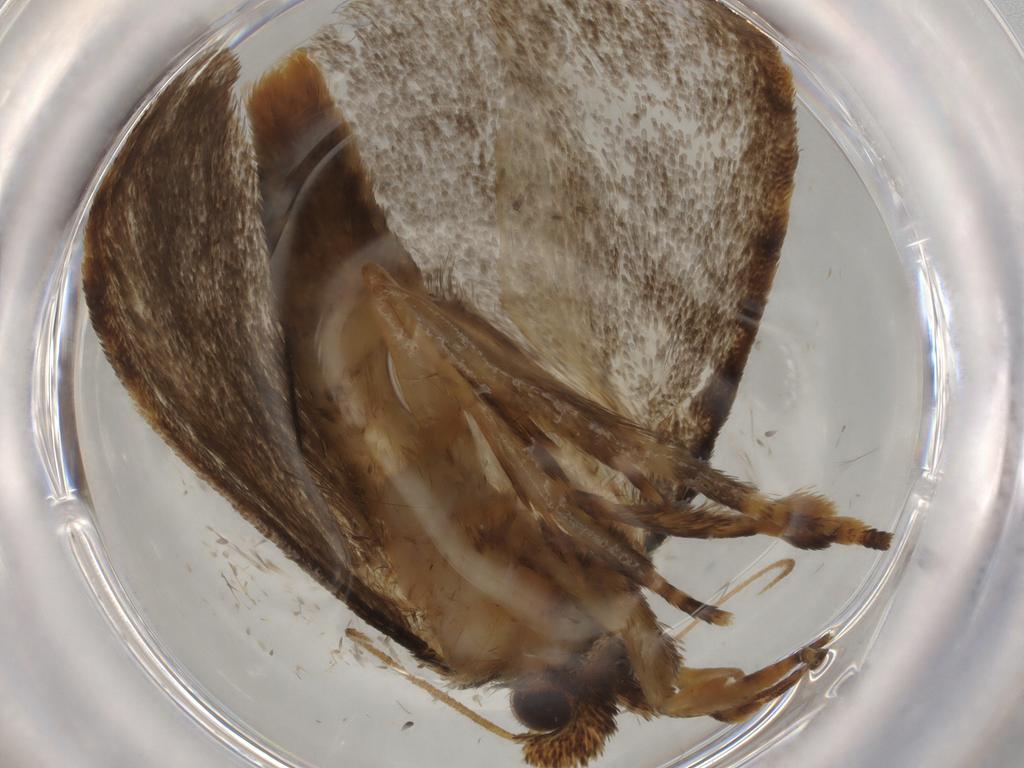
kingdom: Animalia
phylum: Arthropoda
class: Insecta
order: Lepidoptera
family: Tineidae
